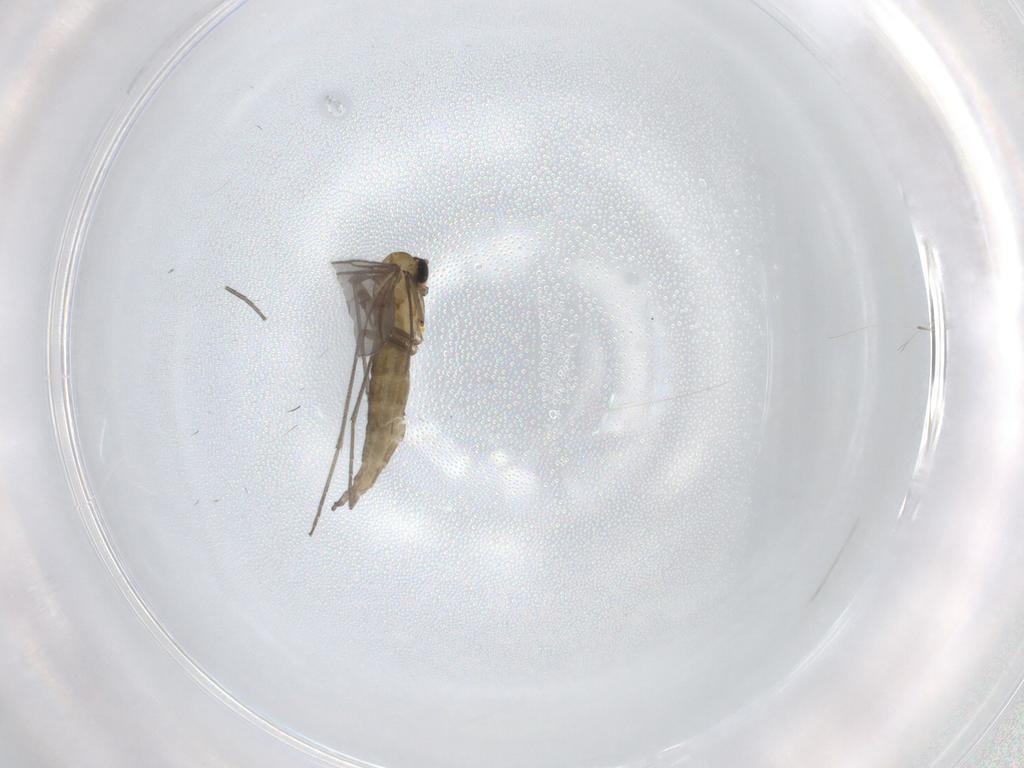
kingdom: Animalia
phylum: Arthropoda
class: Insecta
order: Diptera
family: Sciaridae
